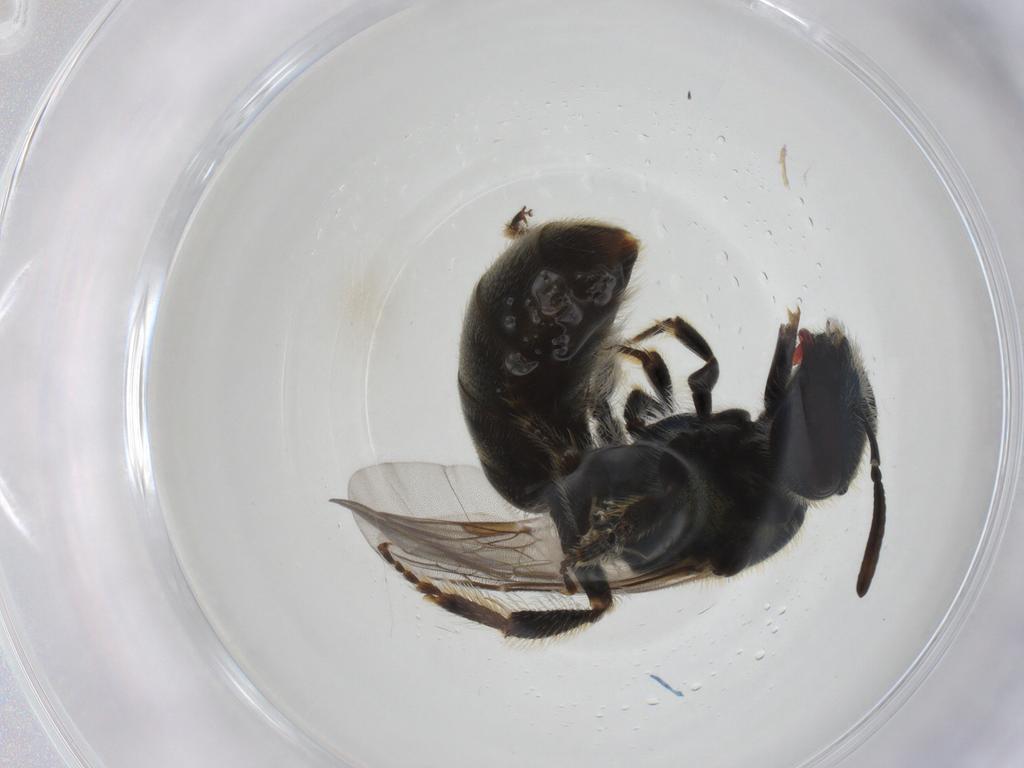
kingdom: Animalia
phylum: Arthropoda
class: Insecta
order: Hymenoptera
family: Halictidae
